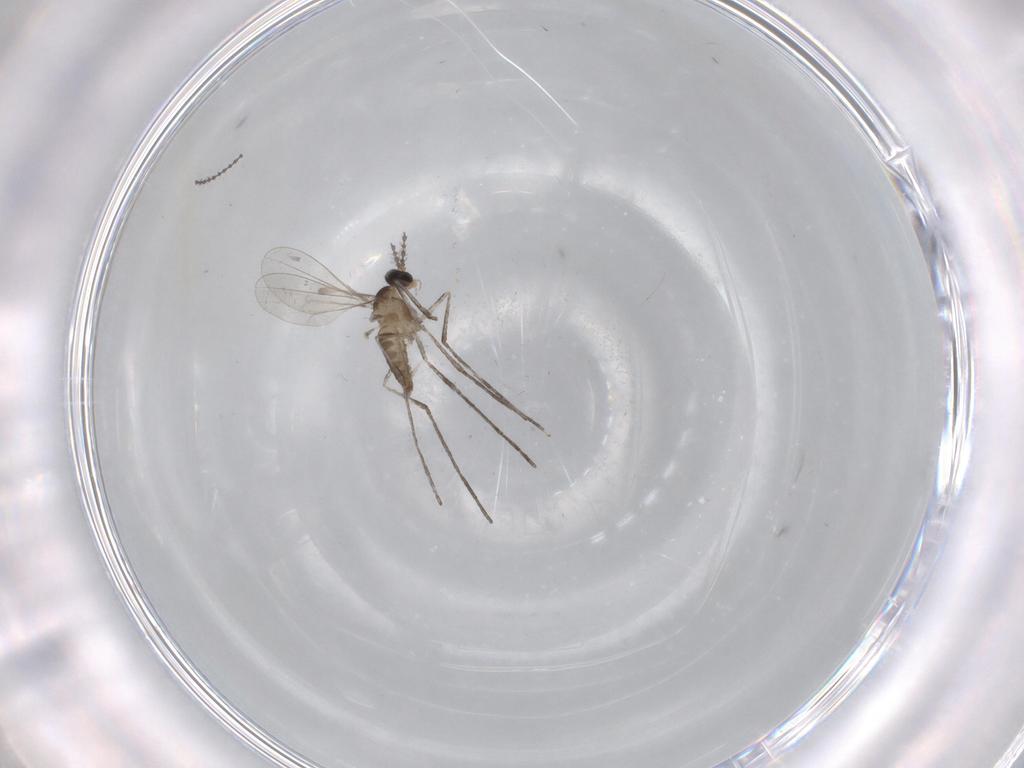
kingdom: Animalia
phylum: Arthropoda
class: Insecta
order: Diptera
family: Cecidomyiidae
